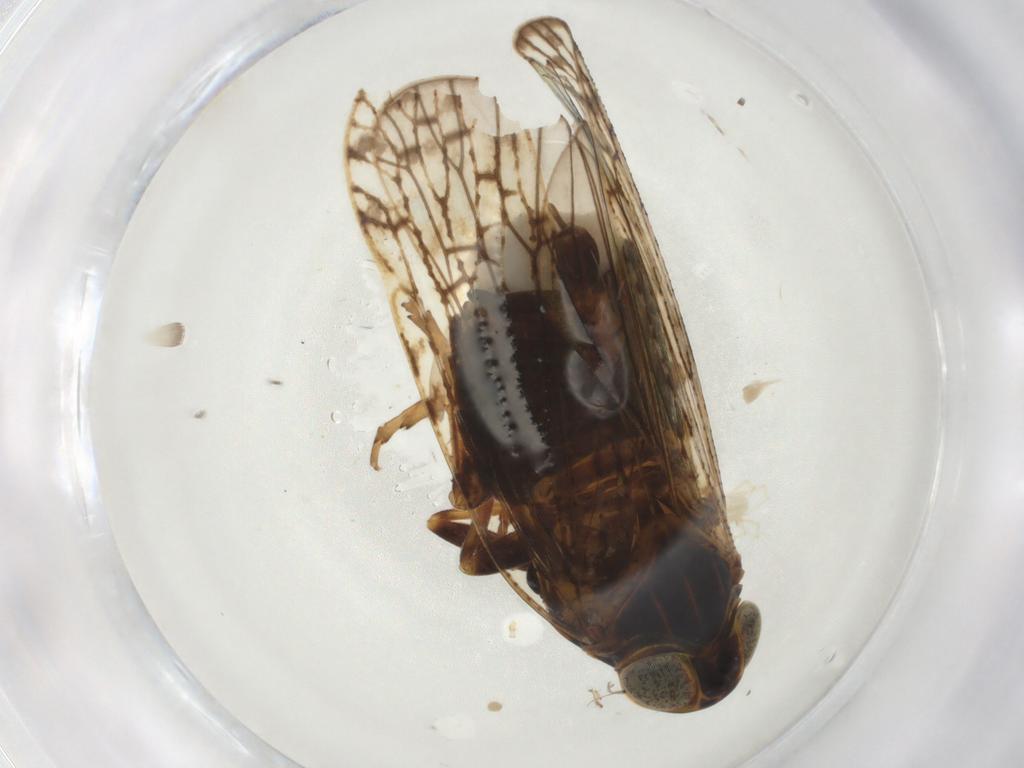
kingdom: Animalia
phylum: Arthropoda
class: Insecta
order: Hemiptera
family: Cixiidae
